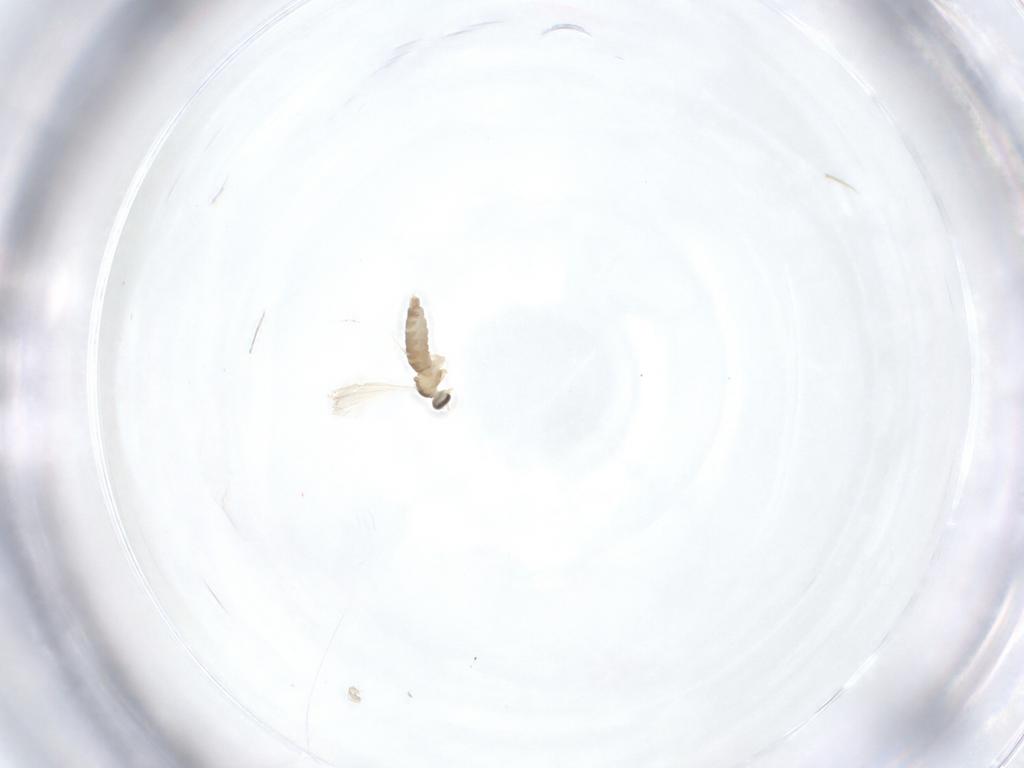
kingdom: Animalia
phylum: Arthropoda
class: Insecta
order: Diptera
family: Cecidomyiidae
